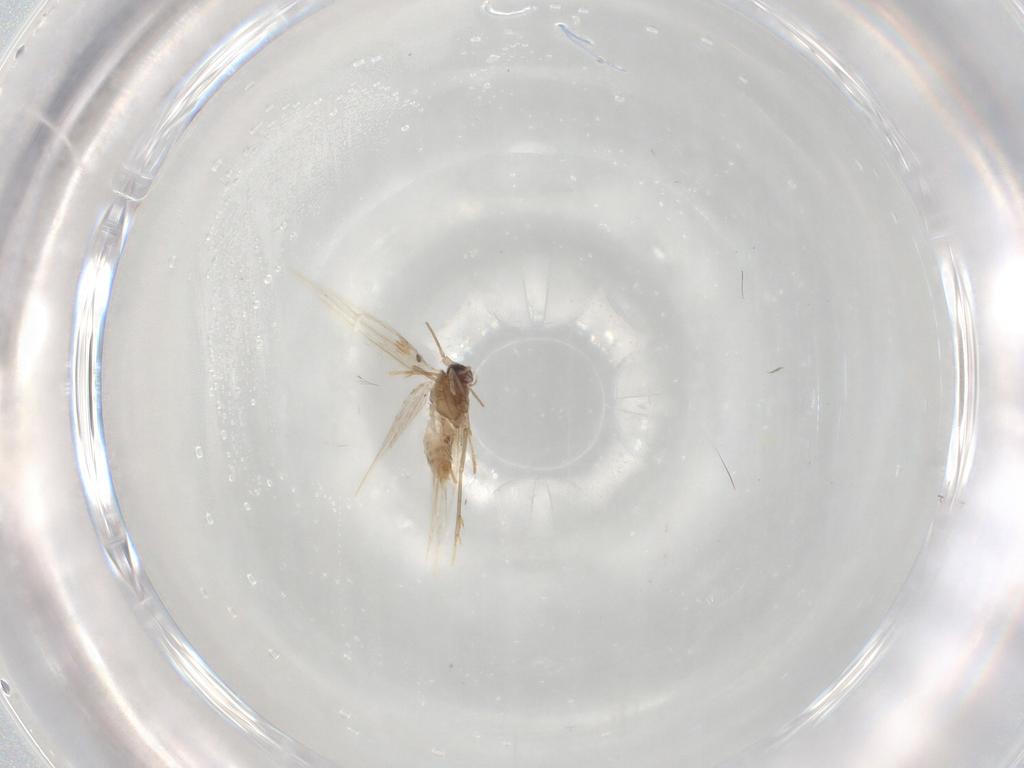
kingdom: Animalia
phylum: Arthropoda
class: Insecta
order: Lepidoptera
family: Nepticulidae
